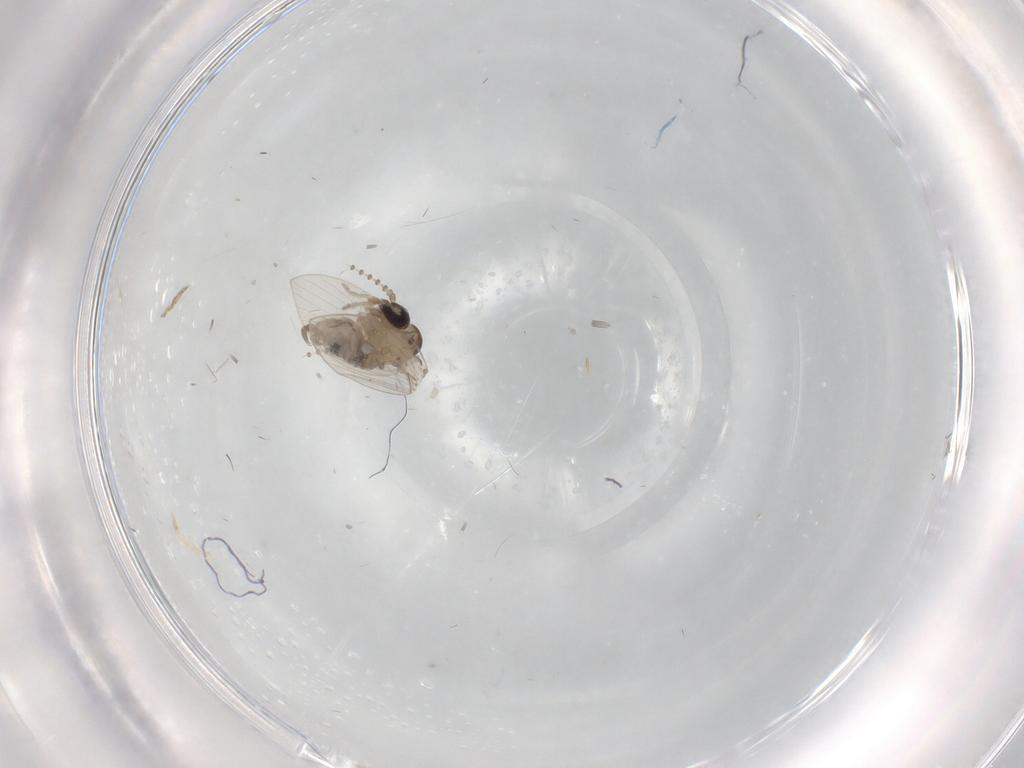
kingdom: Animalia
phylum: Arthropoda
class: Insecta
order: Diptera
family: Psychodidae
